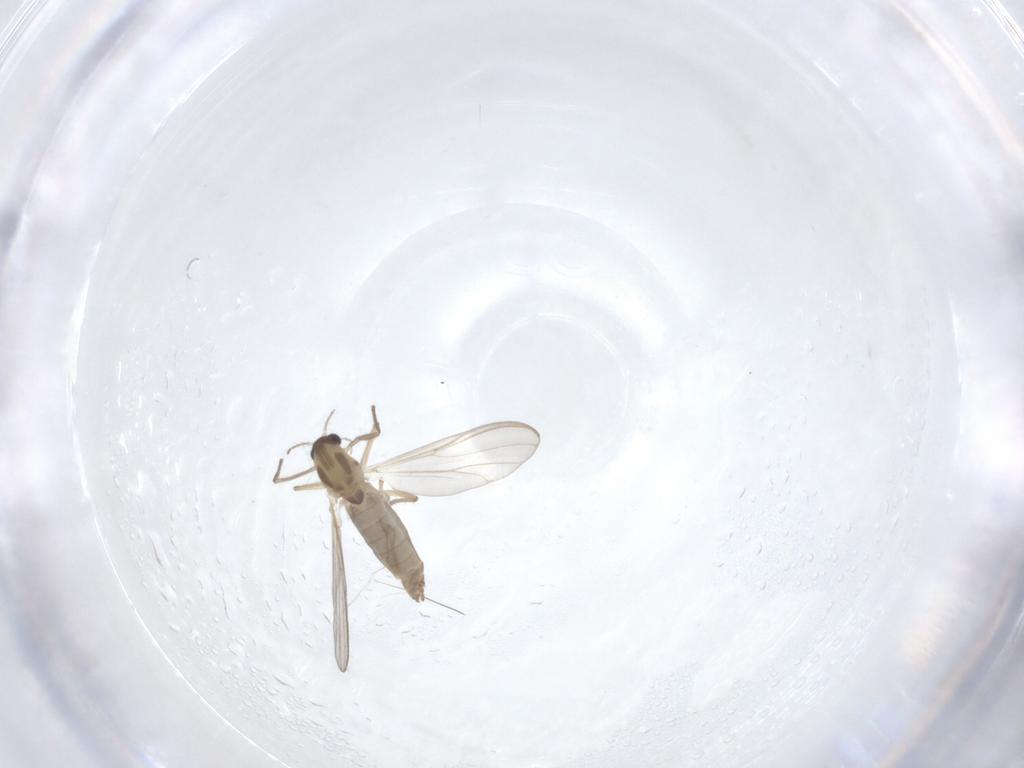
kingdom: Animalia
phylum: Arthropoda
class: Insecta
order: Diptera
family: Chironomidae
